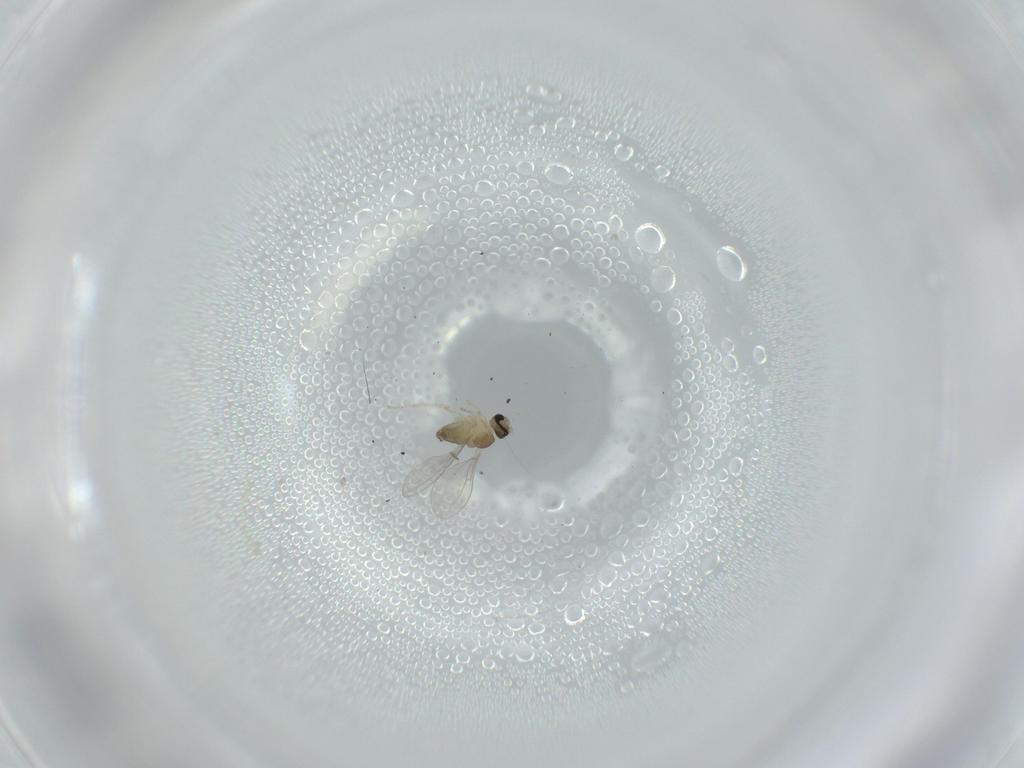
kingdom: Animalia
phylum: Arthropoda
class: Insecta
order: Diptera
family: Cecidomyiidae
